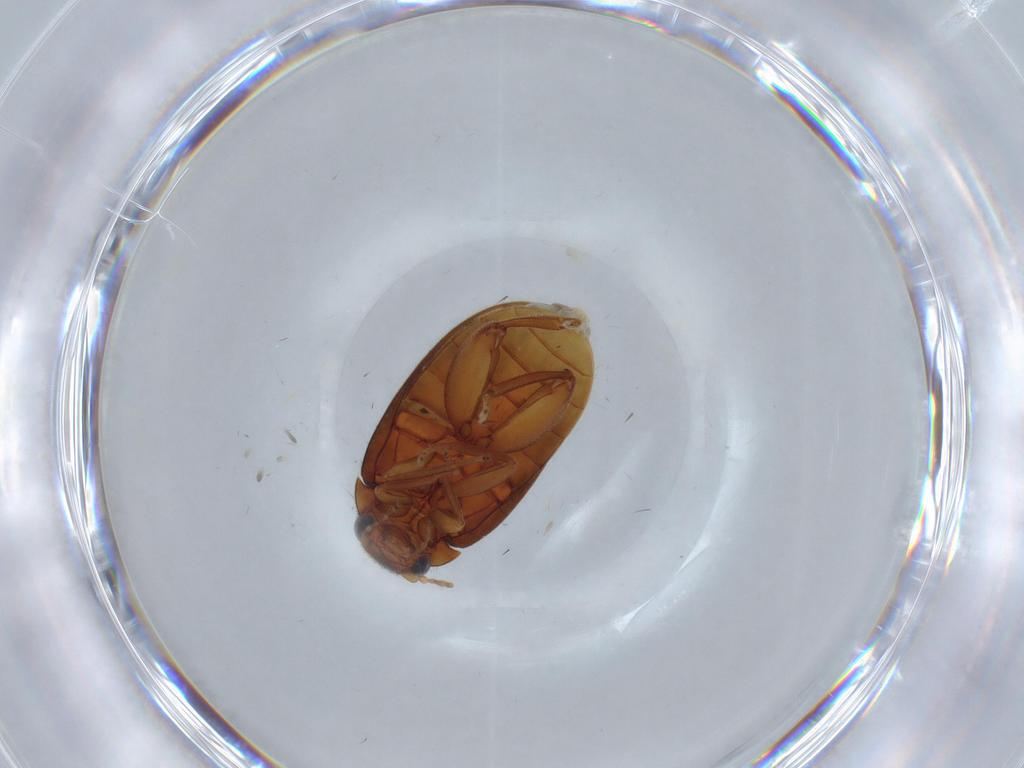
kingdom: Animalia
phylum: Arthropoda
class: Insecta
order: Coleoptera
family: Scirtidae
